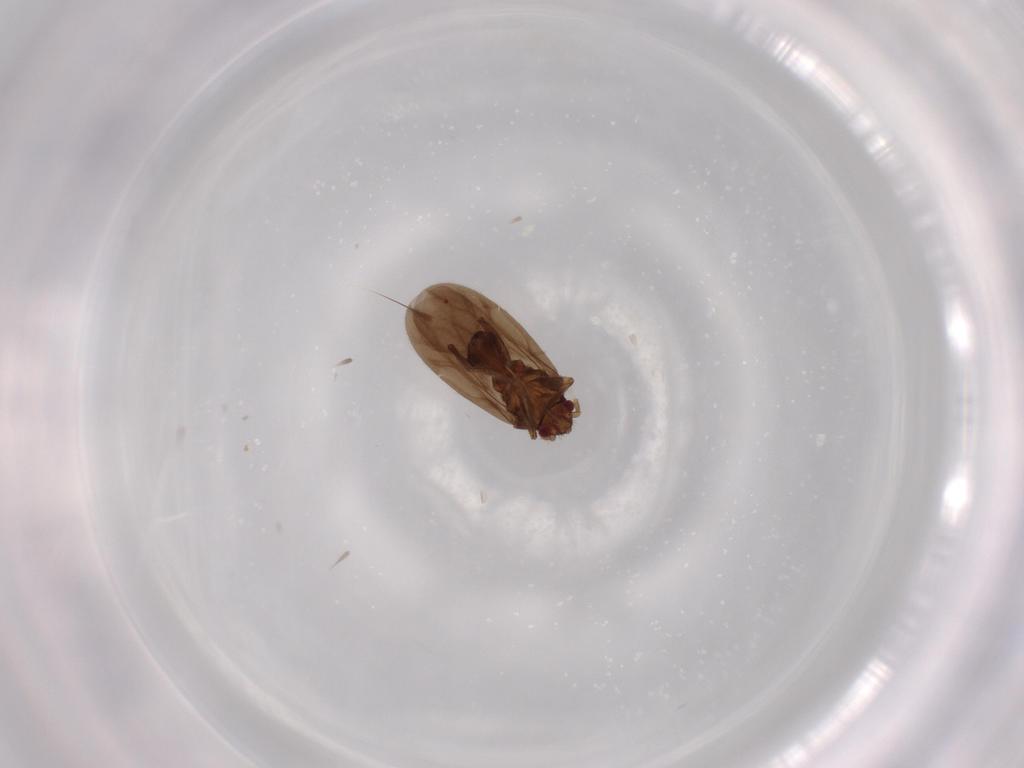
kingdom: Animalia
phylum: Arthropoda
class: Insecta
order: Hemiptera
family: Ceratocombidae
